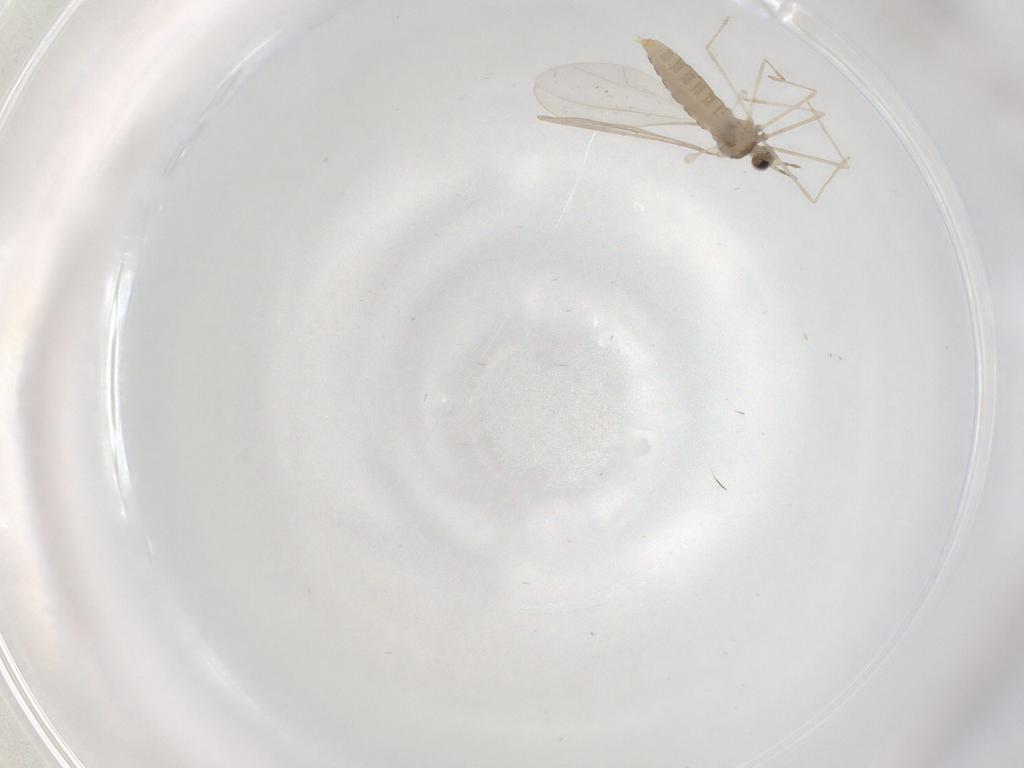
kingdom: Animalia
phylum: Arthropoda
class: Insecta
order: Diptera
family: Cecidomyiidae
